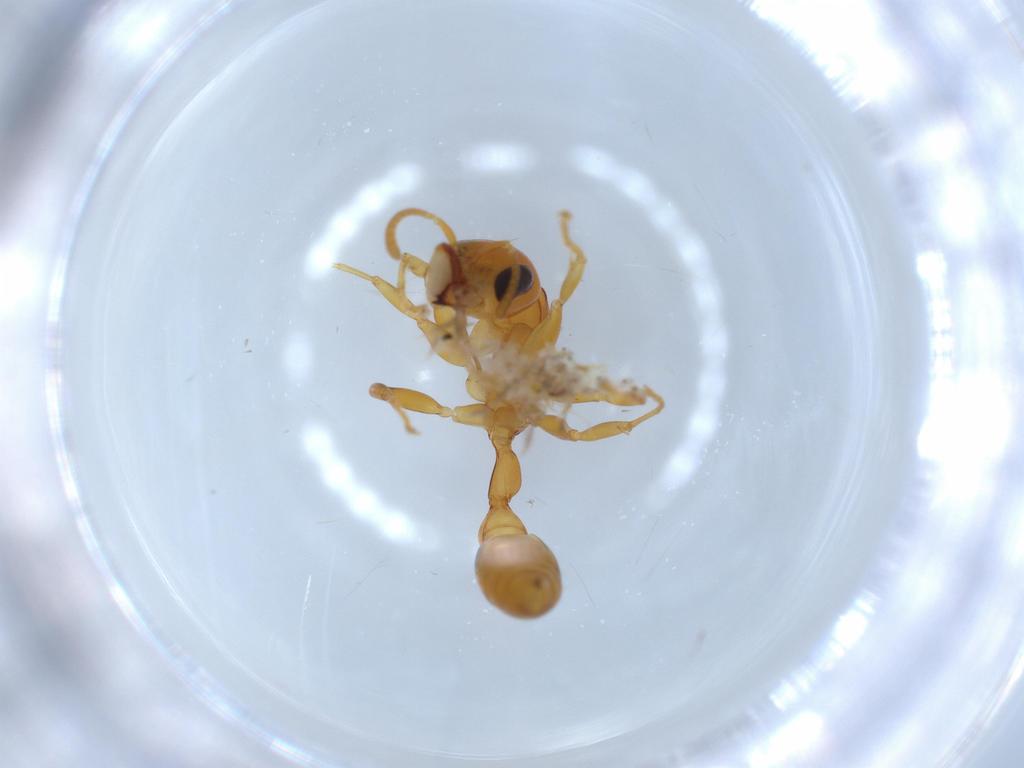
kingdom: Animalia
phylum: Arthropoda
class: Insecta
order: Hymenoptera
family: Formicidae
